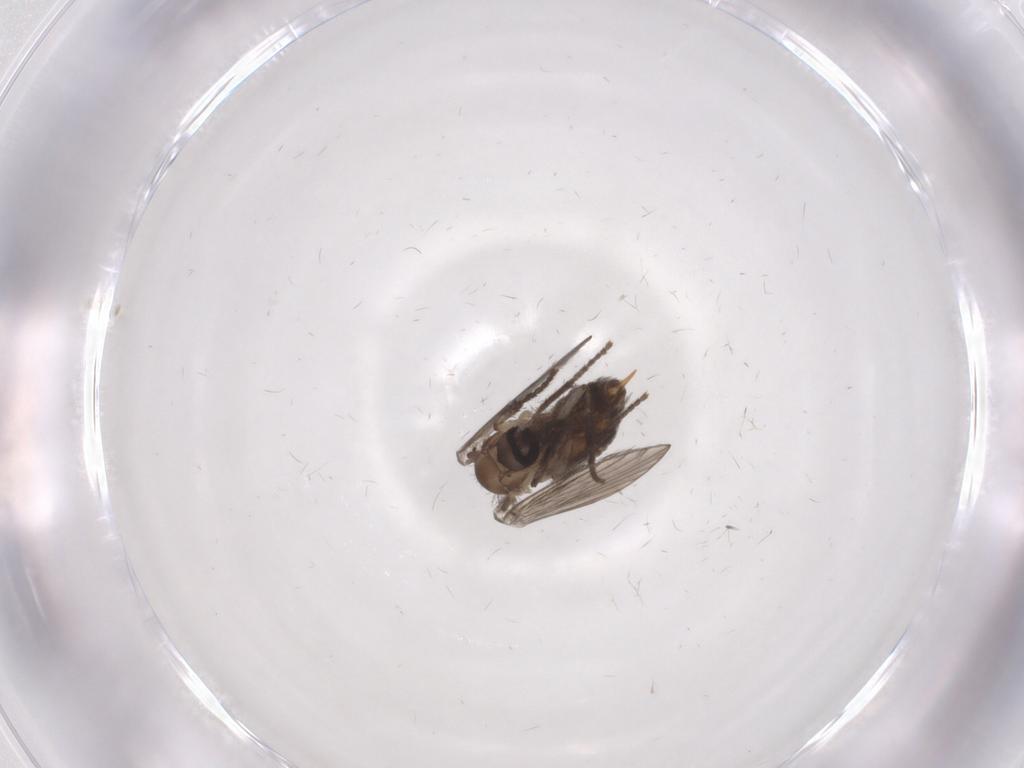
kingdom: Animalia
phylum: Arthropoda
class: Insecta
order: Diptera
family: Psychodidae
